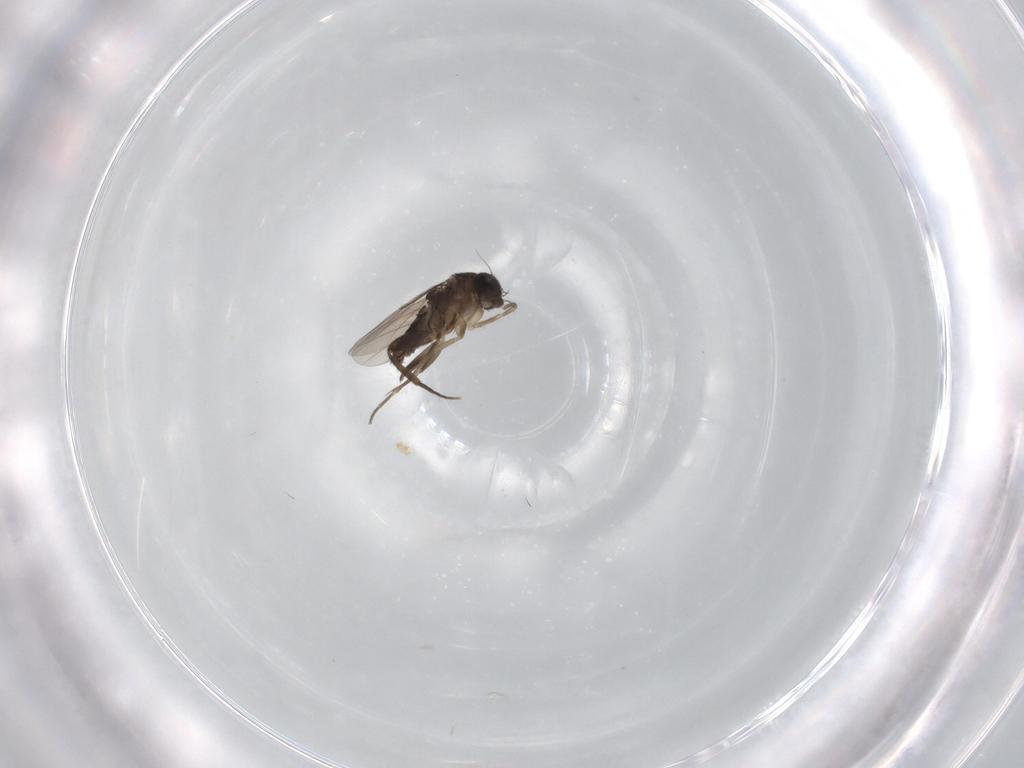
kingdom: Animalia
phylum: Arthropoda
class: Insecta
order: Diptera
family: Phoridae
